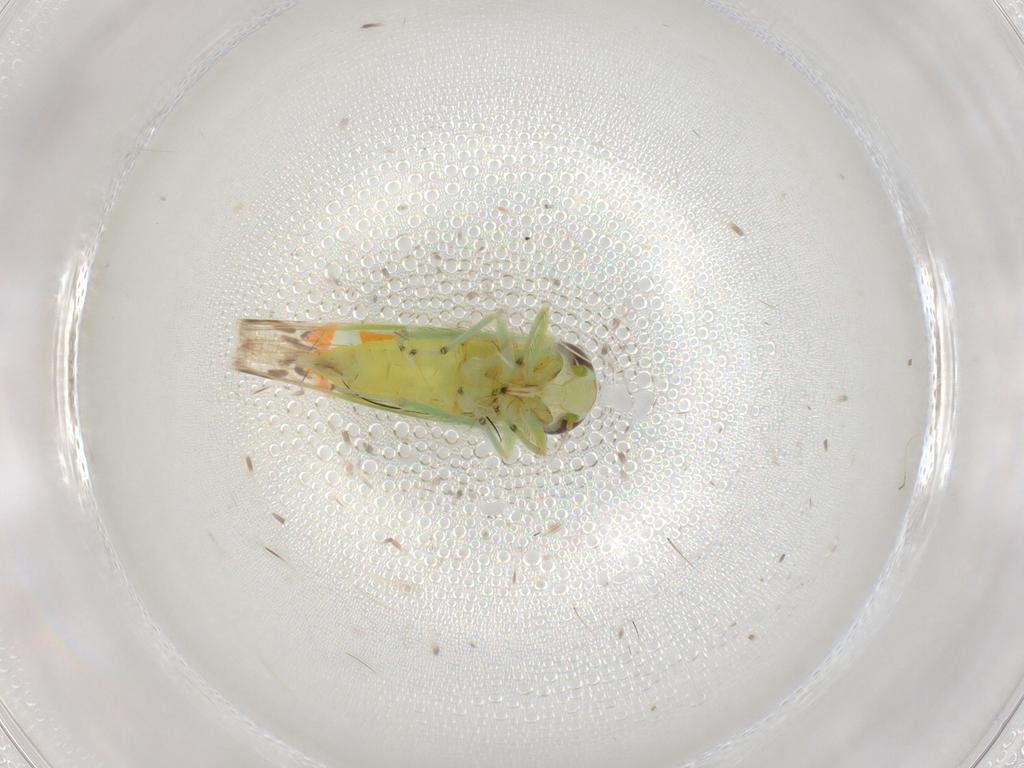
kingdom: Animalia
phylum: Arthropoda
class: Insecta
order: Hemiptera
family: Cicadellidae
